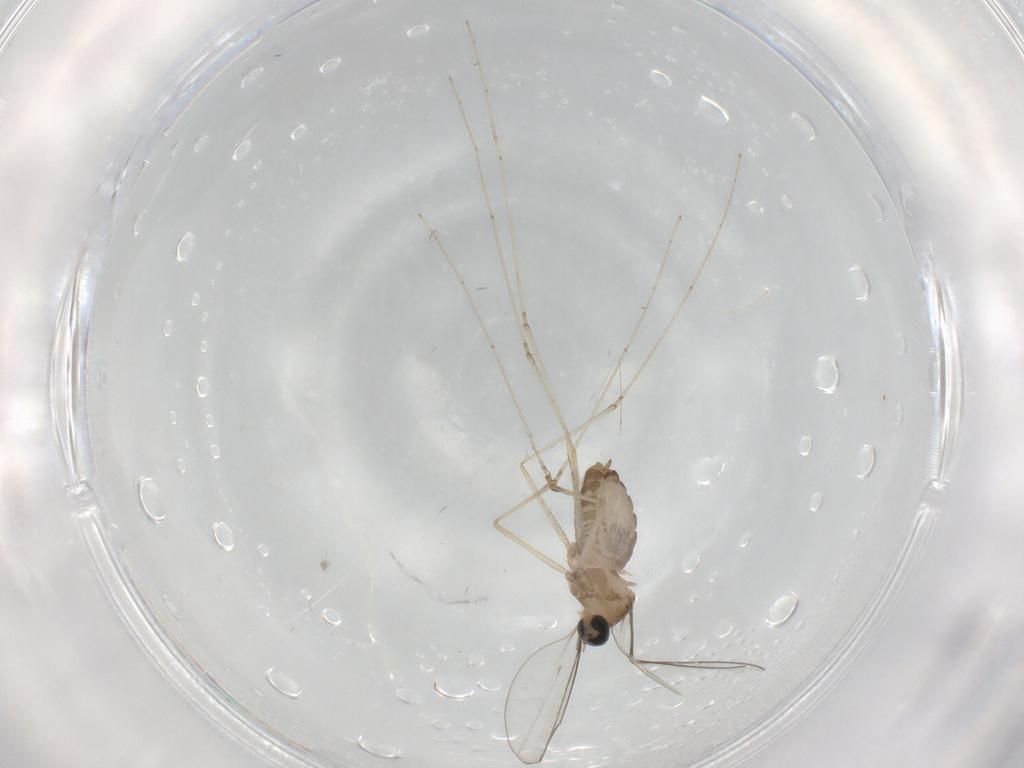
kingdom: Animalia
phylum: Arthropoda
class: Insecta
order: Diptera
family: Cecidomyiidae
